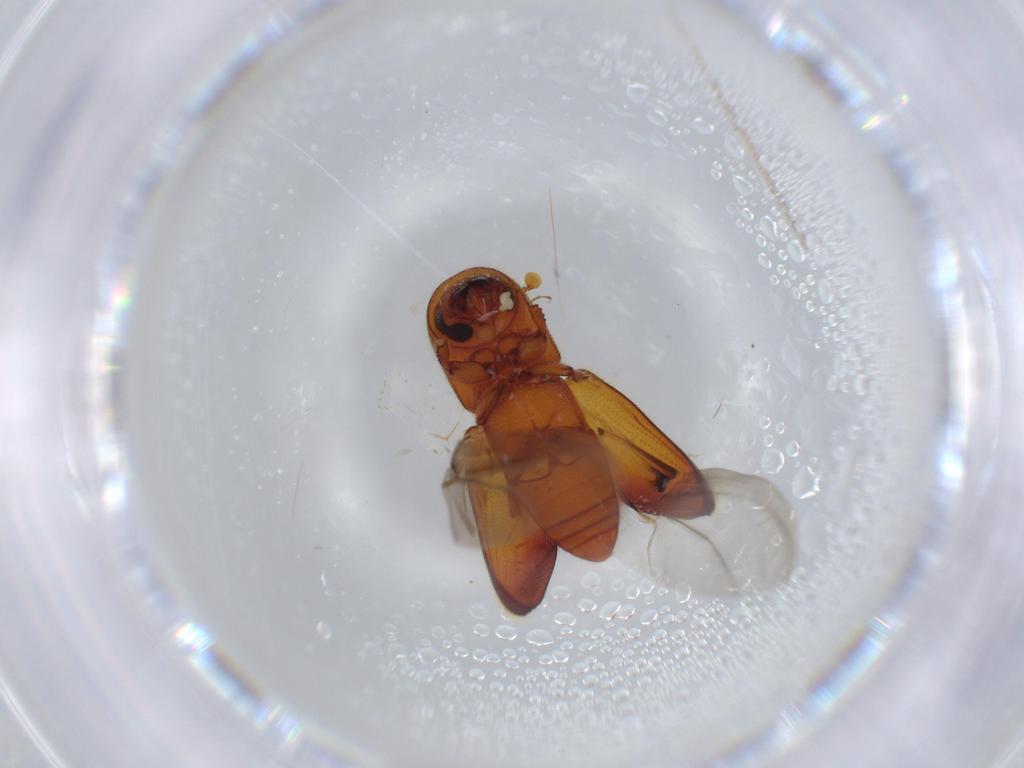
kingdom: Animalia
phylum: Arthropoda
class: Insecta
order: Coleoptera
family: Curculionidae
